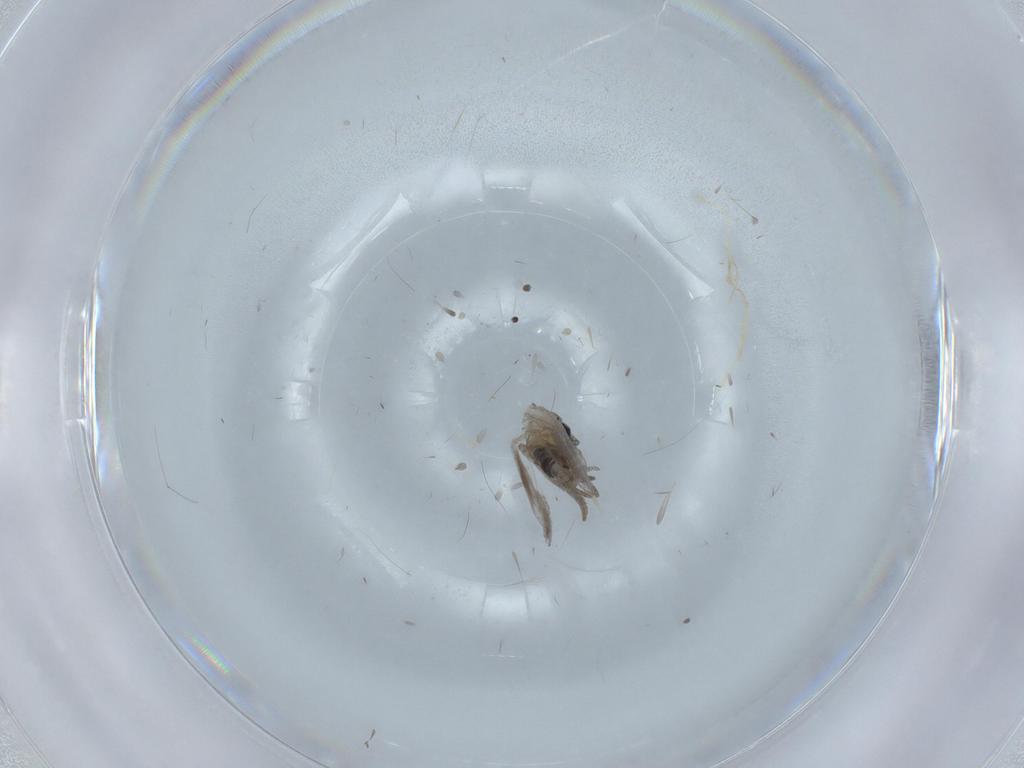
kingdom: Animalia
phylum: Arthropoda
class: Insecta
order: Diptera
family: Psychodidae
